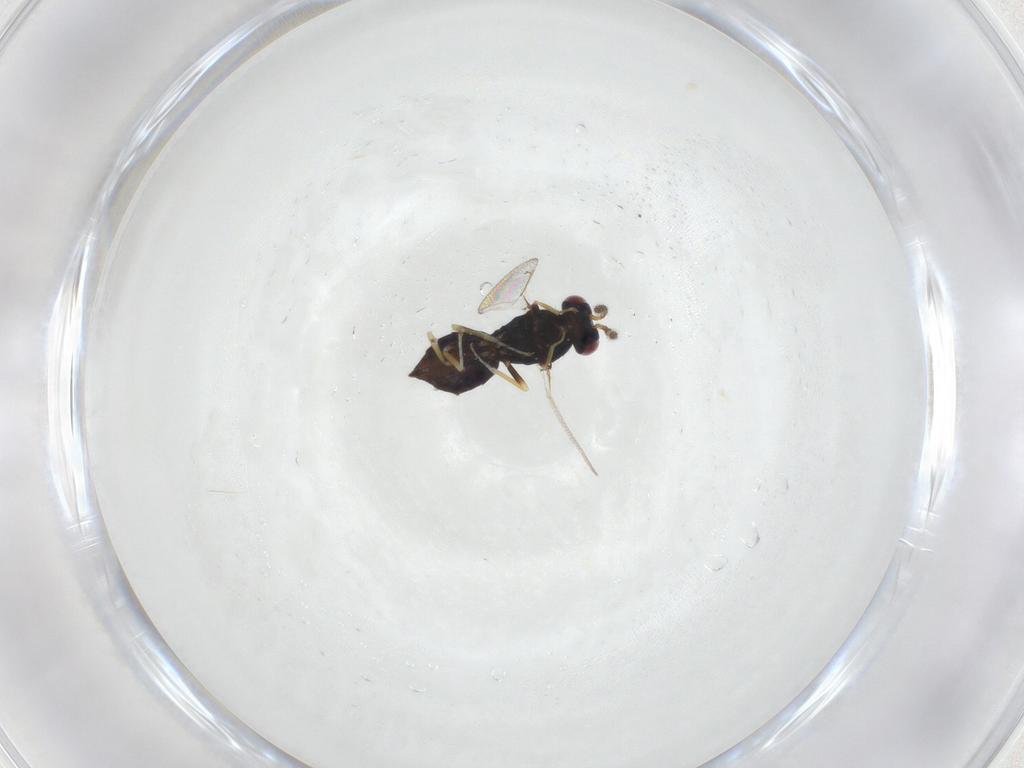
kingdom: Animalia
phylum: Arthropoda
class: Insecta
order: Hymenoptera
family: Eulophidae
